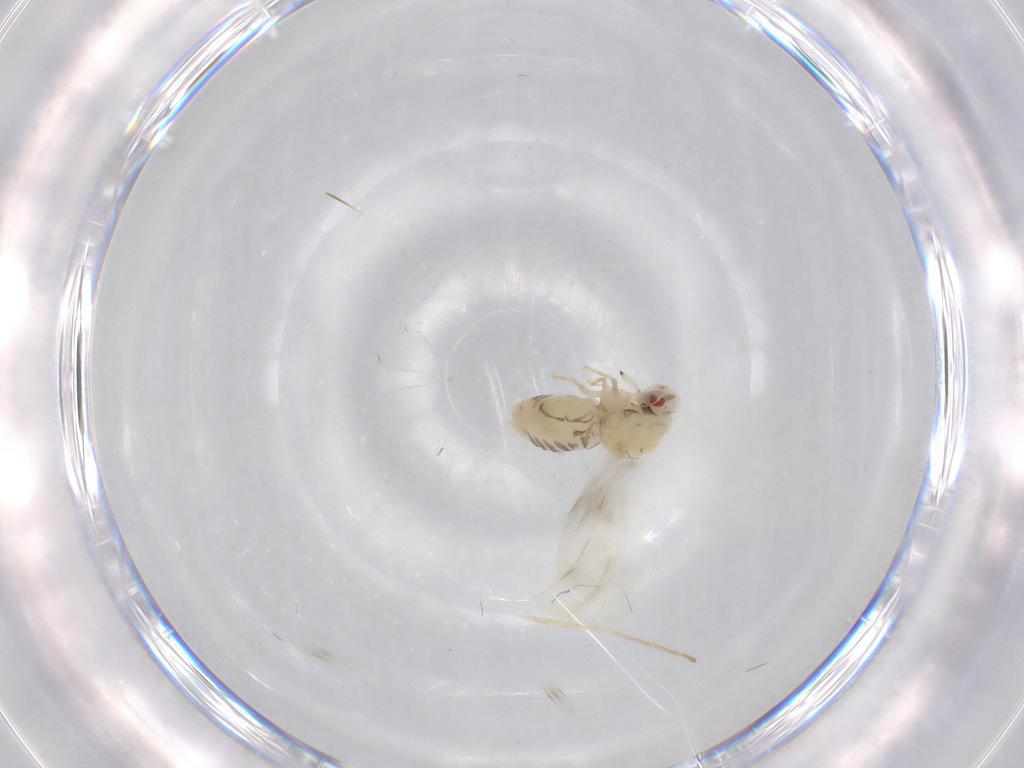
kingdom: Animalia
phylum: Arthropoda
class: Insecta
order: Hemiptera
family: Aleyrodidae
